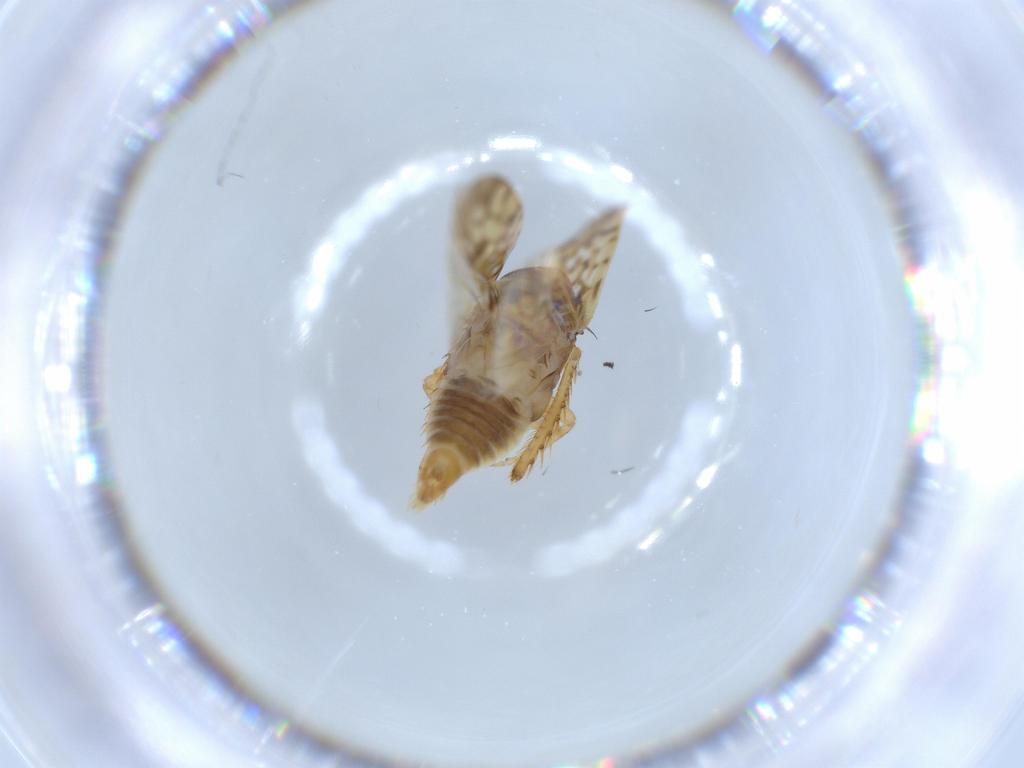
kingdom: Animalia
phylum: Arthropoda
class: Insecta
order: Hemiptera
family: Cicadellidae
